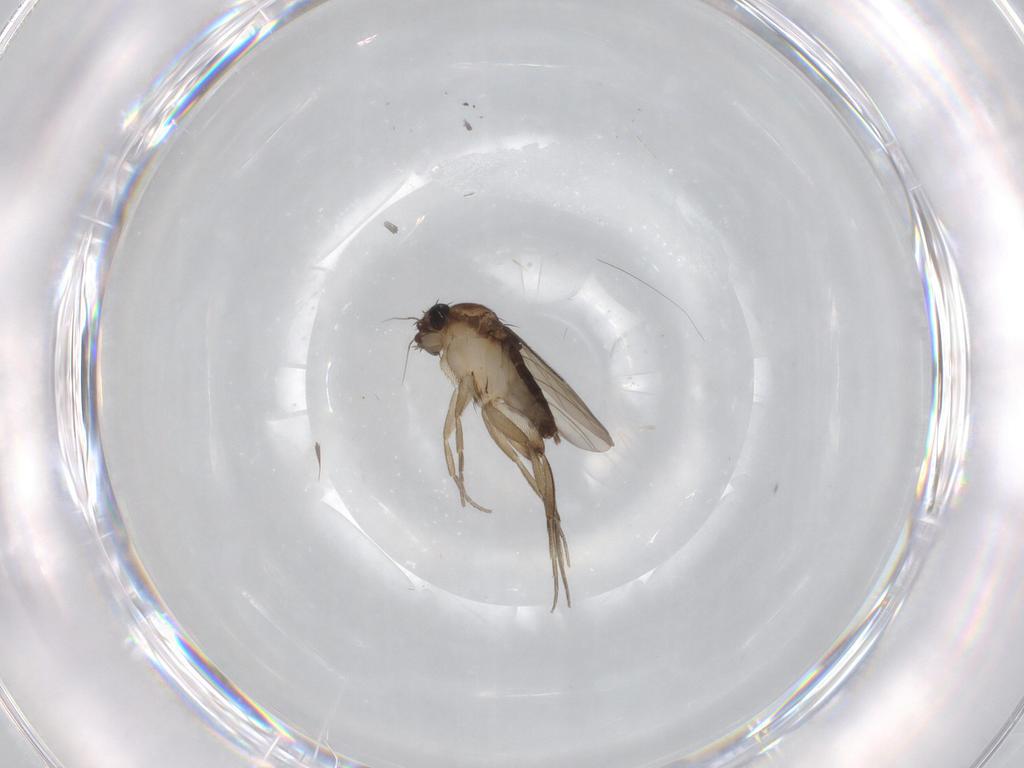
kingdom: Animalia
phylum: Arthropoda
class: Insecta
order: Diptera
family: Phoridae
